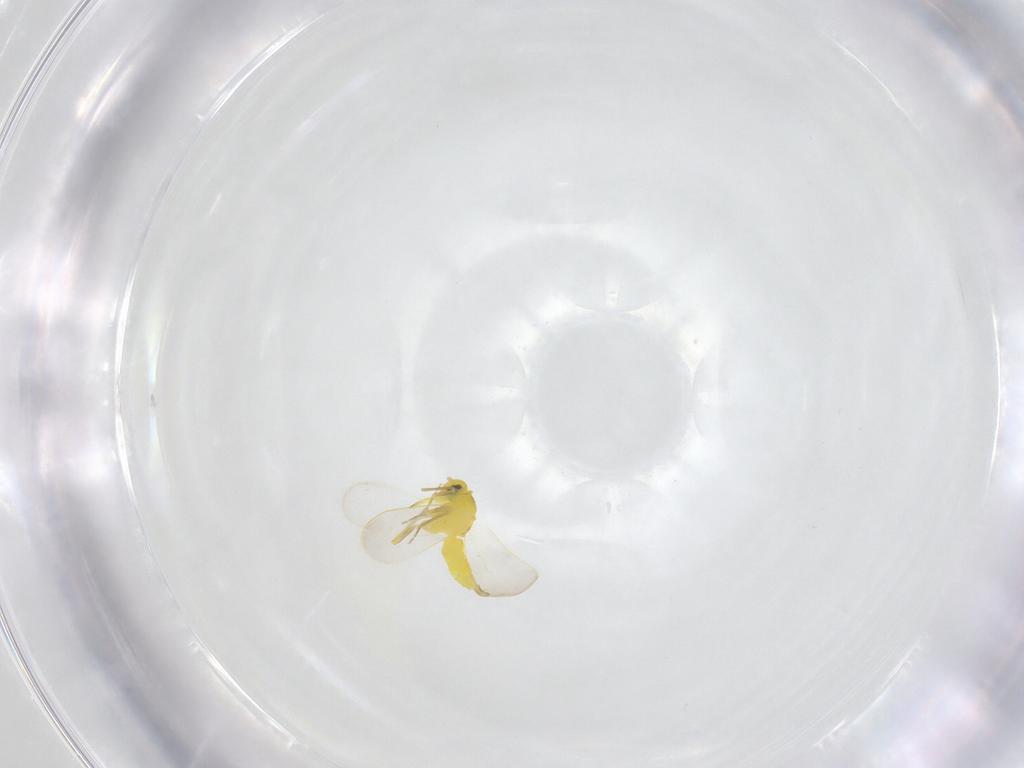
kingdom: Animalia
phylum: Arthropoda
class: Insecta
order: Hemiptera
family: Aleyrodidae
